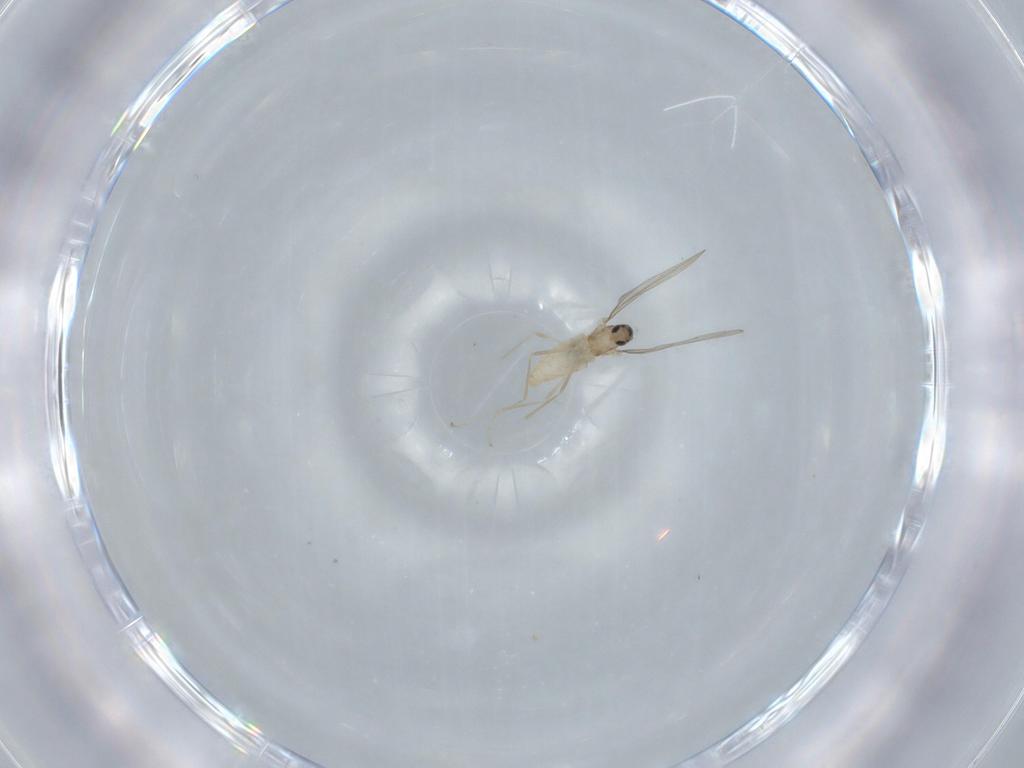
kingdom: Animalia
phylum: Arthropoda
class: Insecta
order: Diptera
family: Cecidomyiidae
